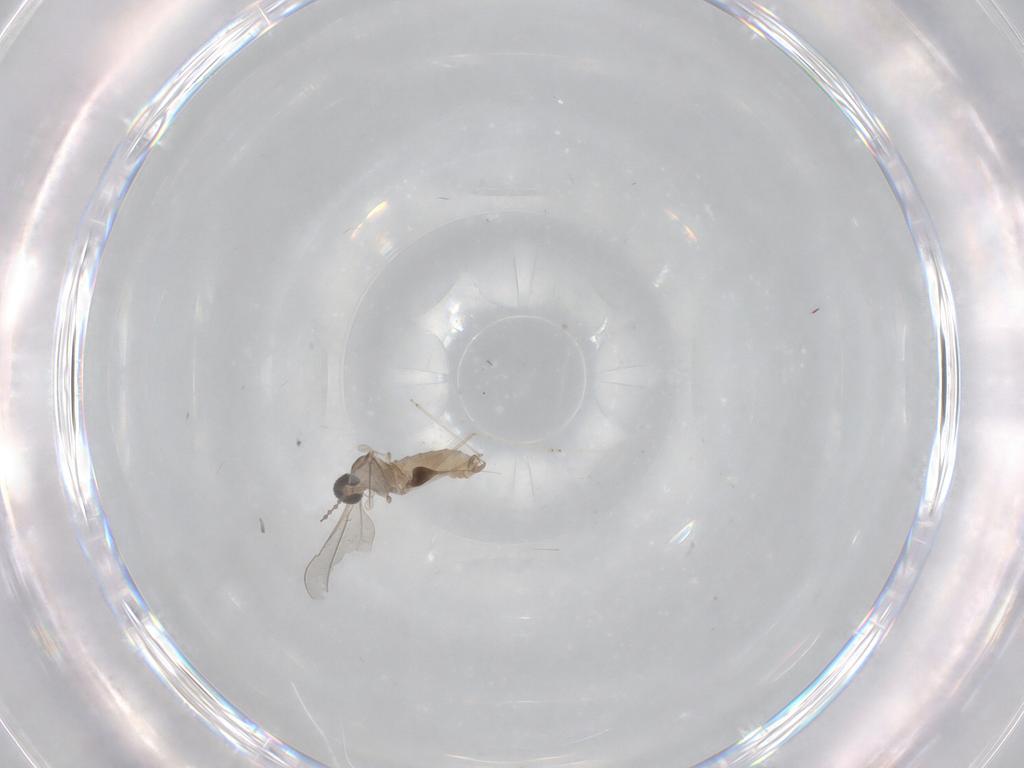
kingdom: Animalia
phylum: Arthropoda
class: Insecta
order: Diptera
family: Cecidomyiidae
